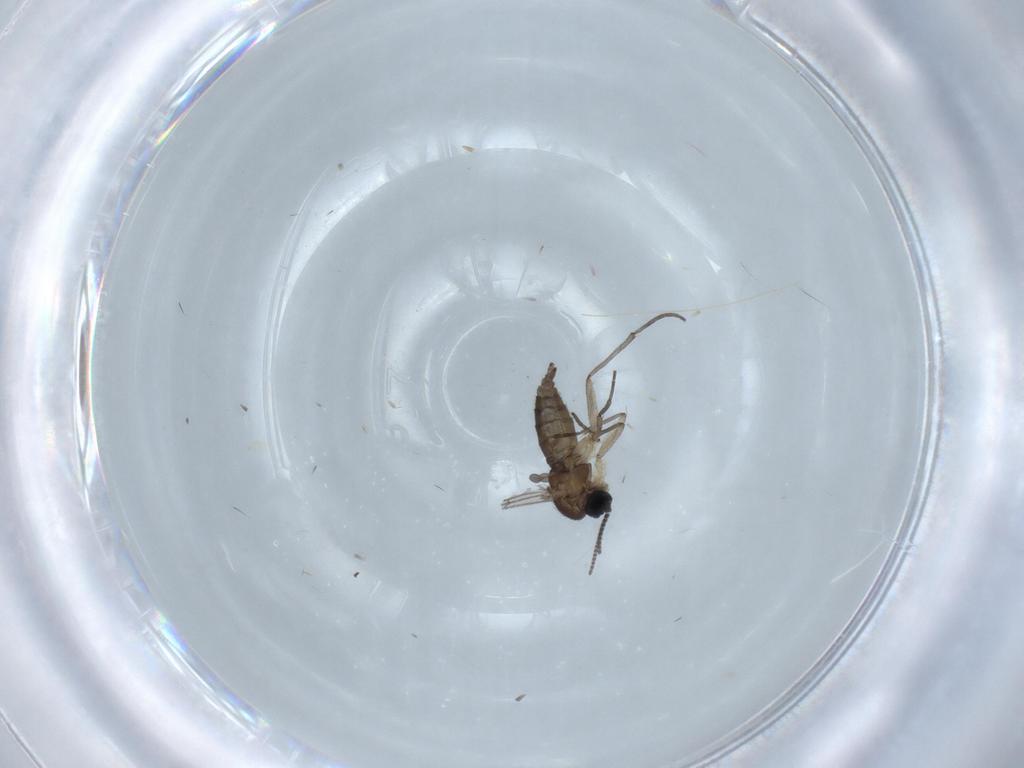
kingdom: Animalia
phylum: Arthropoda
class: Insecta
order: Diptera
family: Sciaridae
